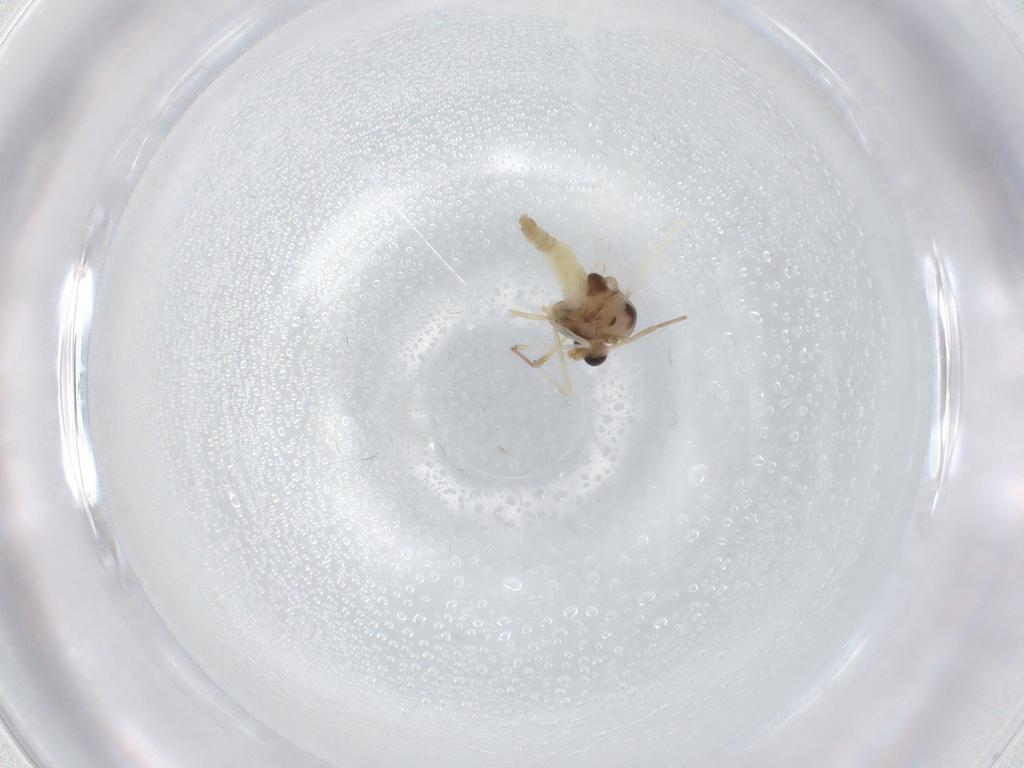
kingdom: Animalia
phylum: Arthropoda
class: Insecta
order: Diptera
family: Chironomidae
